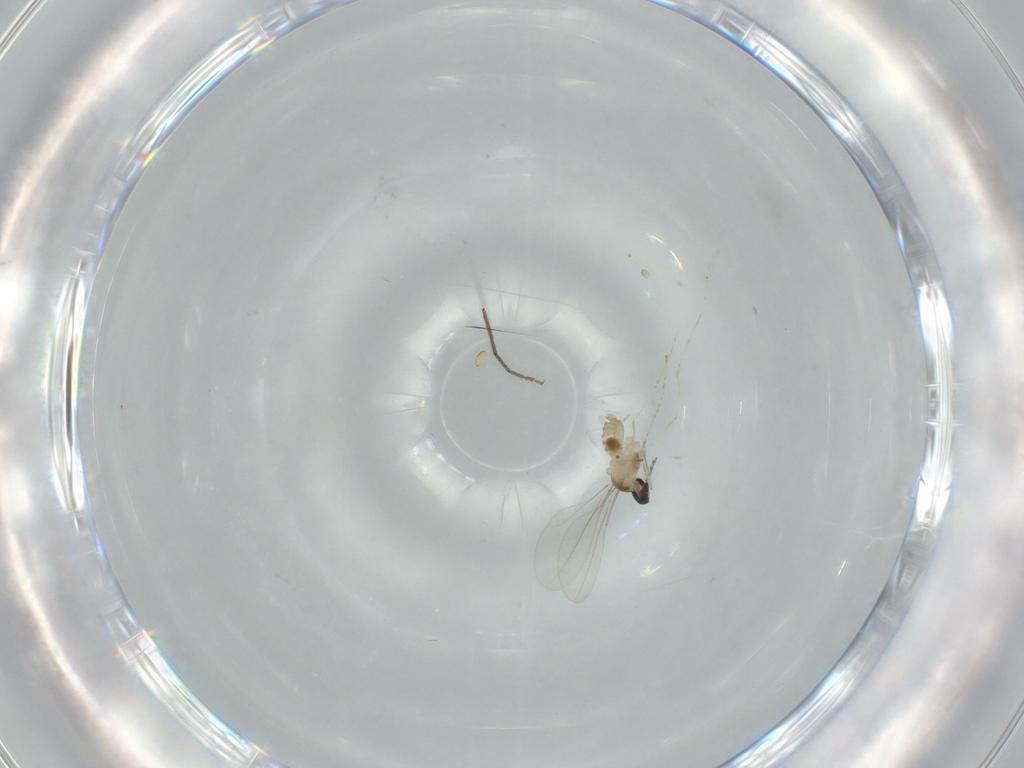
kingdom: Animalia
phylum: Arthropoda
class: Insecta
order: Diptera
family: Cecidomyiidae
